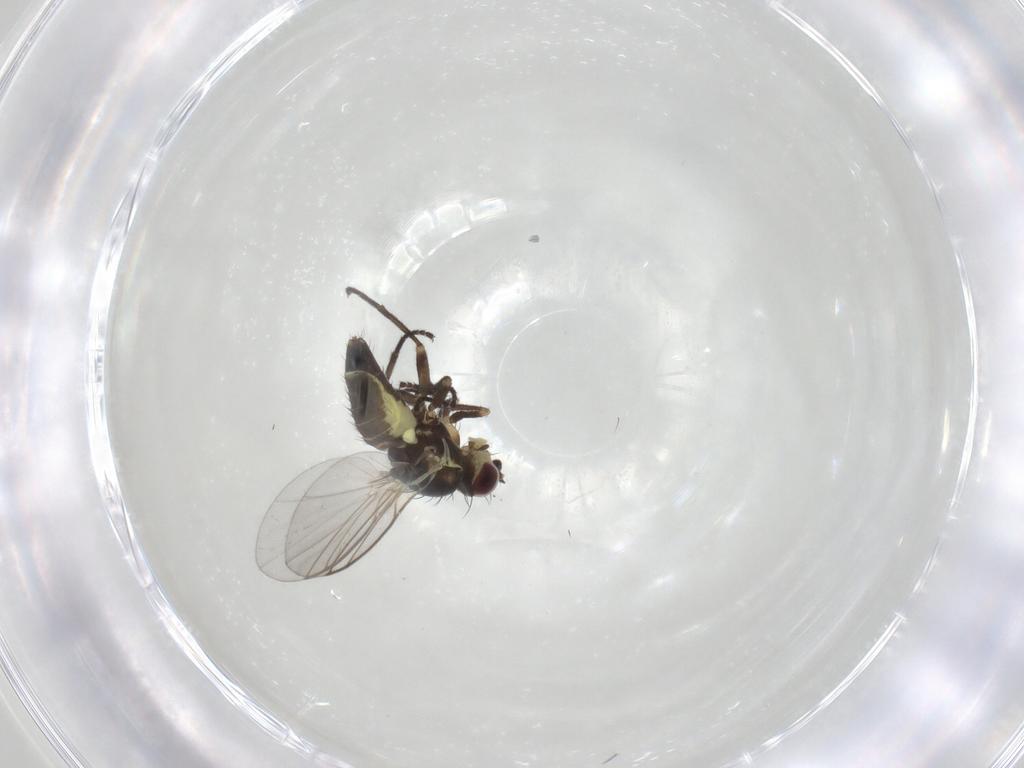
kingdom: Animalia
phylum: Arthropoda
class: Insecta
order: Diptera
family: Agromyzidae
